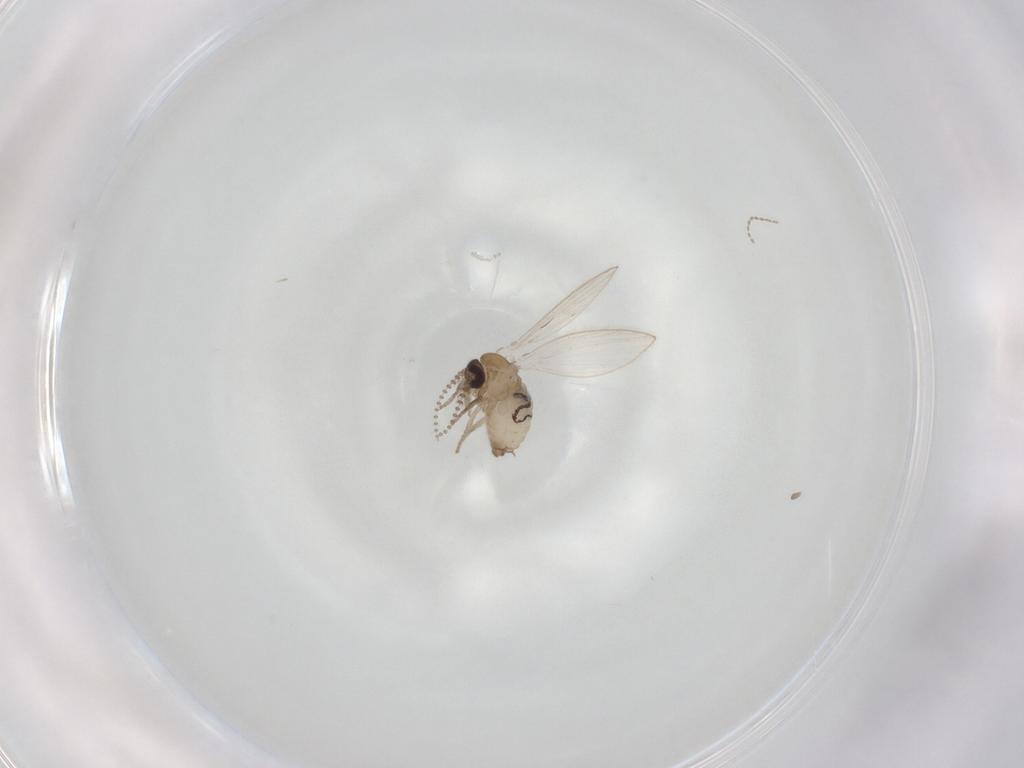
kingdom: Animalia
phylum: Arthropoda
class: Insecta
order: Diptera
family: Psychodidae
